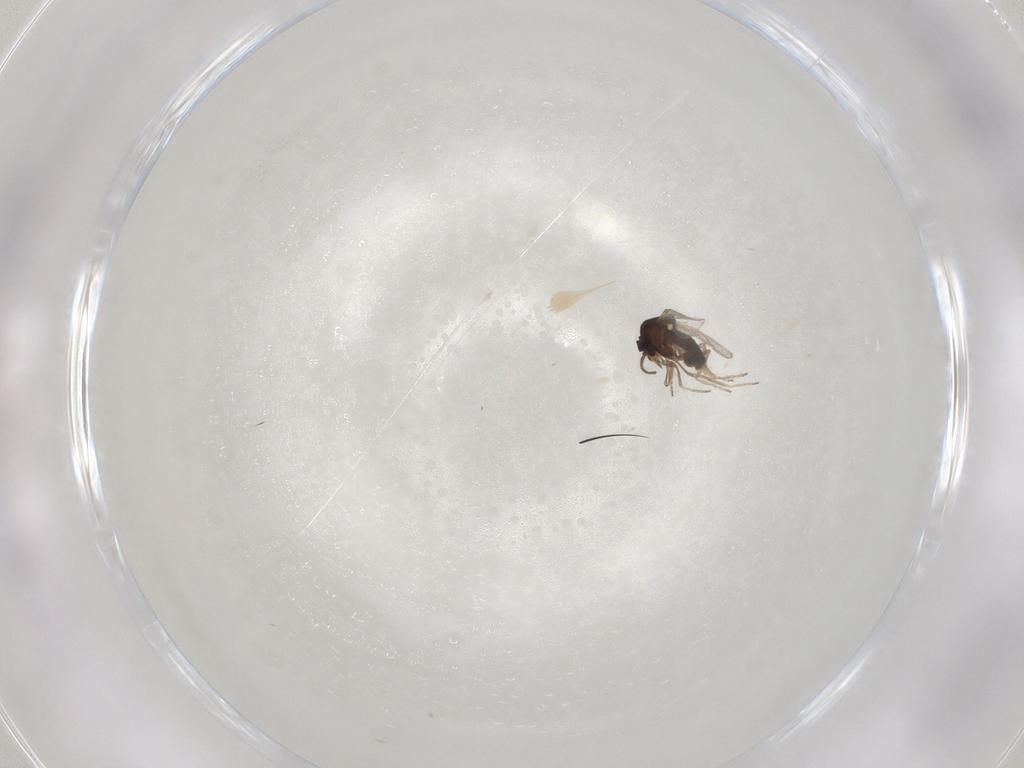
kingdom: Animalia
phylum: Arthropoda
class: Insecta
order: Diptera
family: Ceratopogonidae
